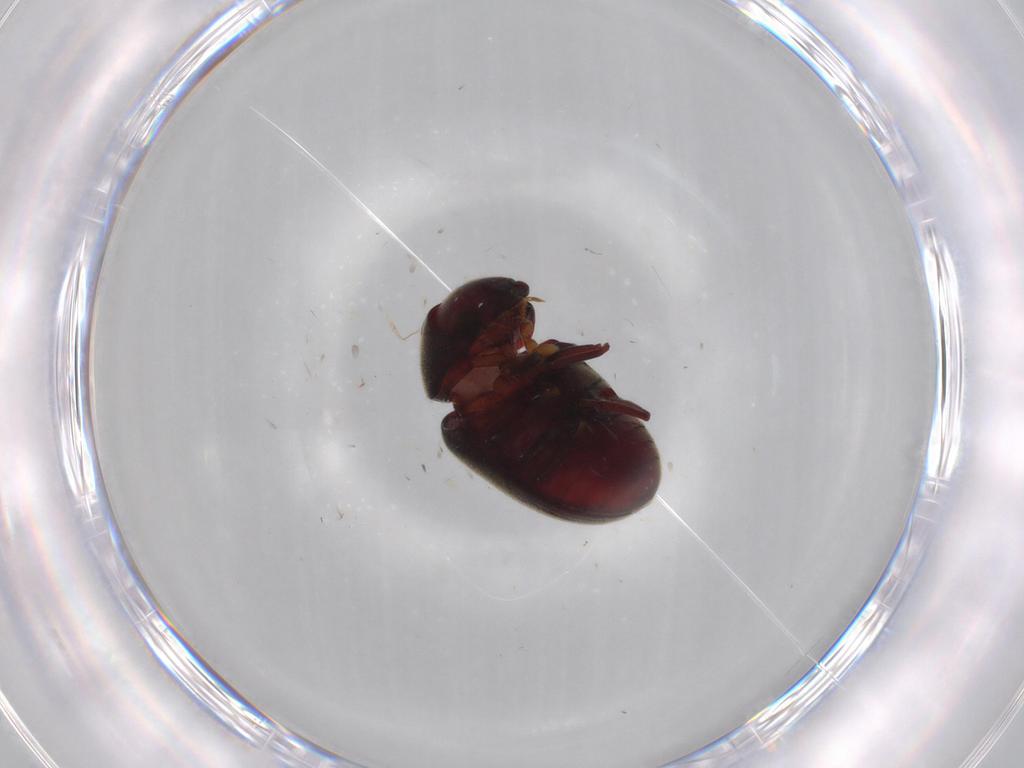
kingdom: Animalia
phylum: Arthropoda
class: Insecta
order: Coleoptera
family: Ptinidae
